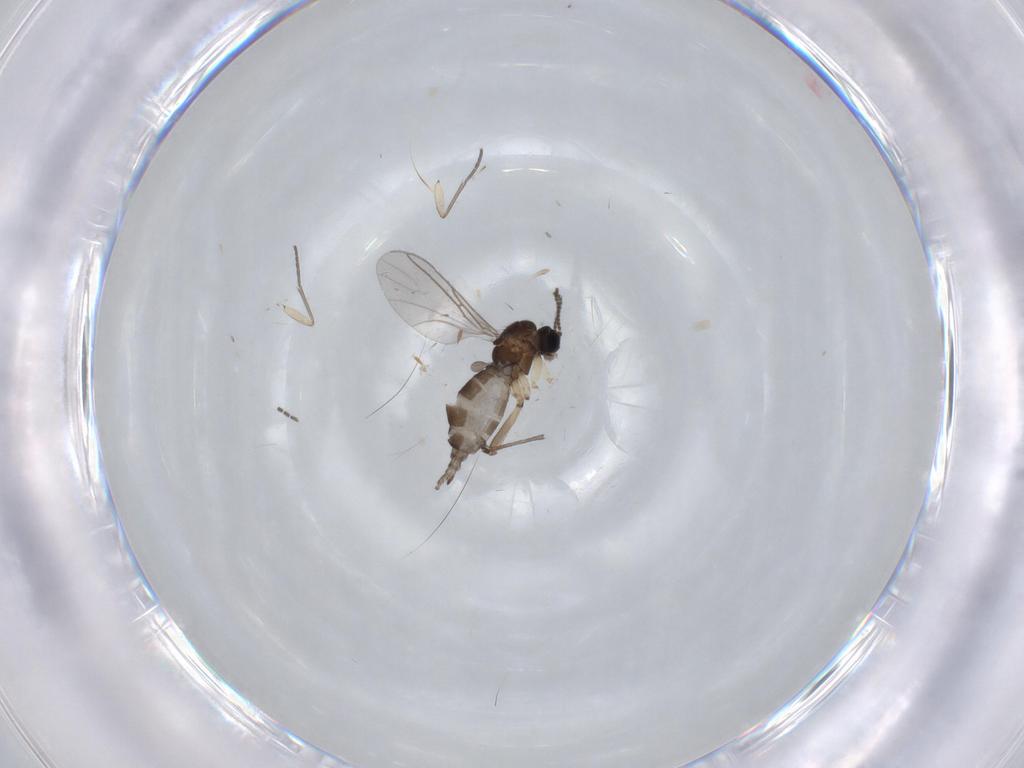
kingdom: Animalia
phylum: Arthropoda
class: Insecta
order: Diptera
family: Sciaridae
